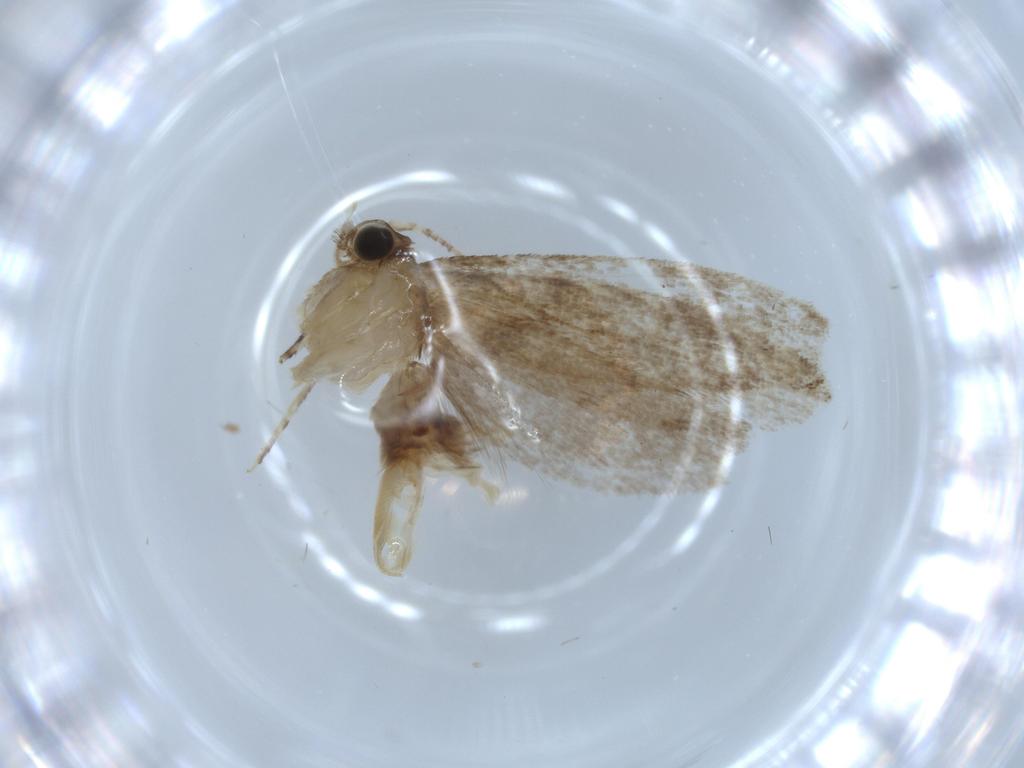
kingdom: Animalia
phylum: Arthropoda
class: Insecta
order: Lepidoptera
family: Tineidae
